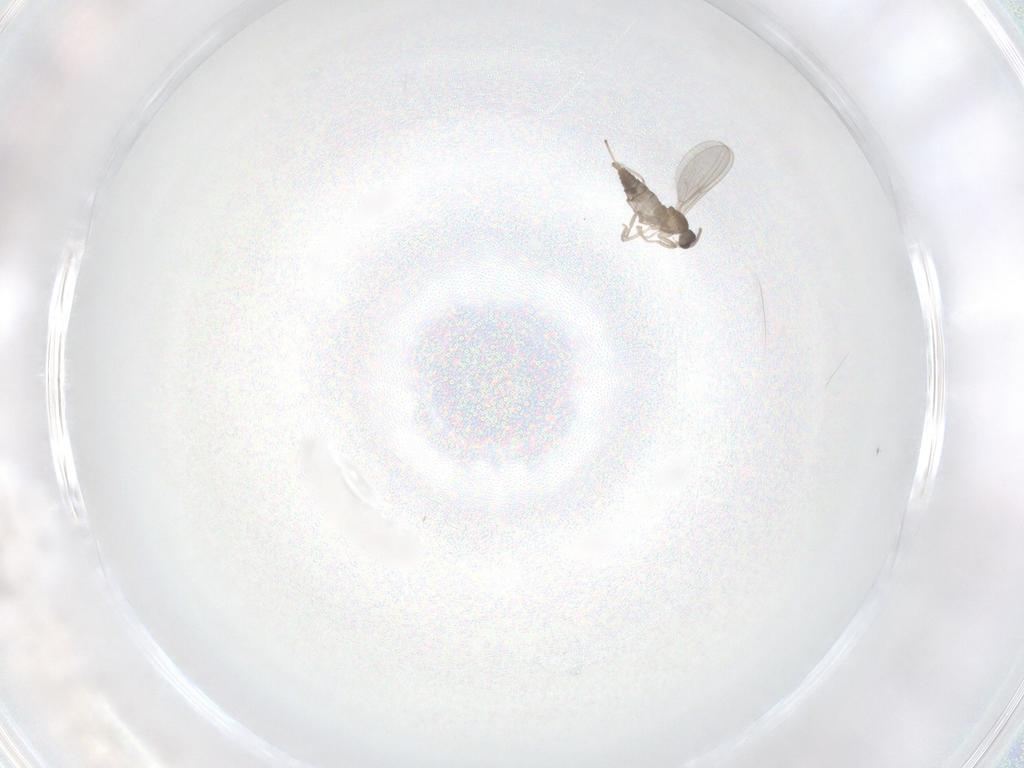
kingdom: Animalia
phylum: Arthropoda
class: Insecta
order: Diptera
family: Cecidomyiidae
